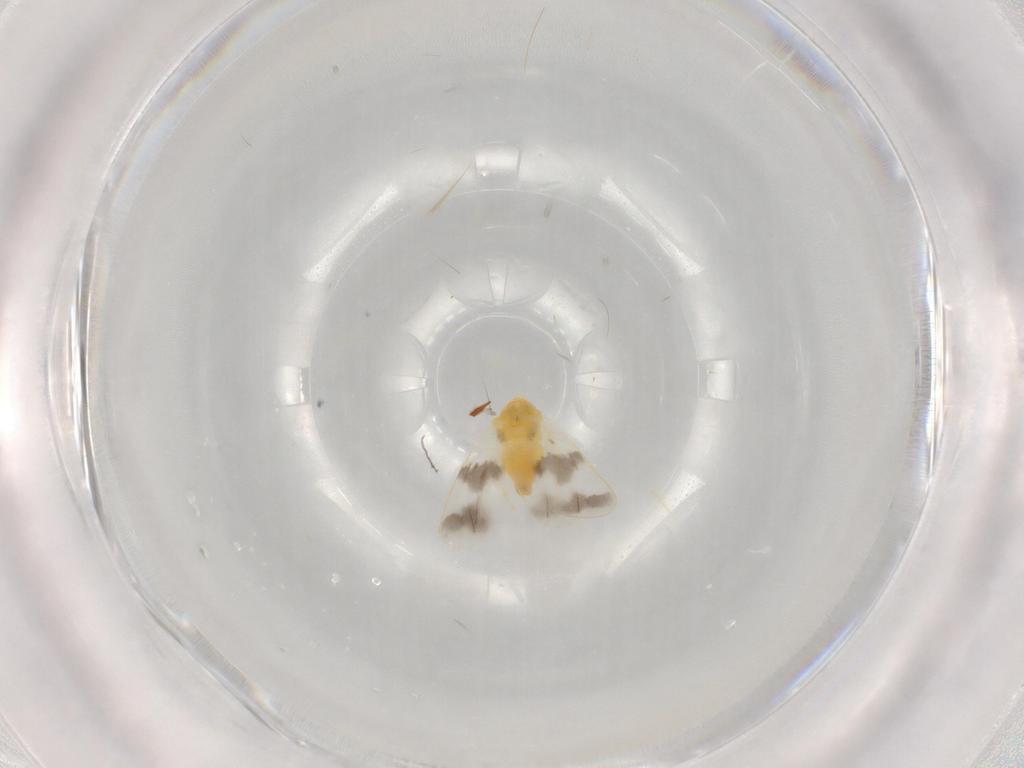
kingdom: Animalia
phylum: Arthropoda
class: Insecta
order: Hemiptera
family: Aleyrodidae
